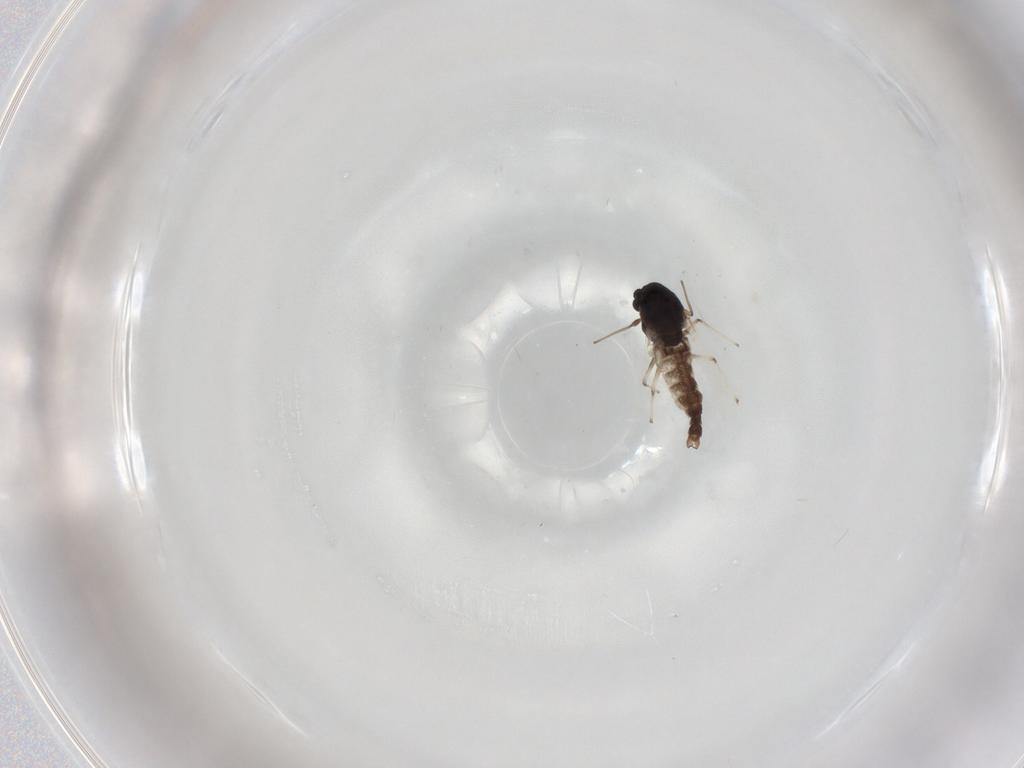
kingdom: Animalia
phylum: Arthropoda
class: Insecta
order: Diptera
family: Chironomidae
